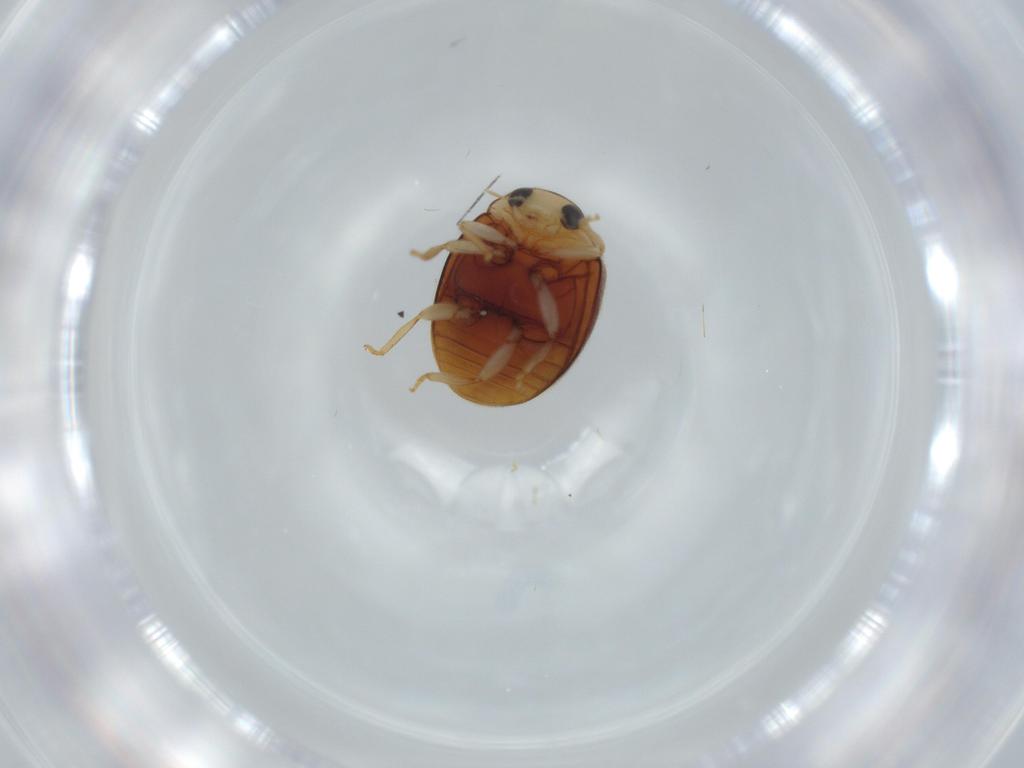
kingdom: Animalia
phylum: Arthropoda
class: Insecta
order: Coleoptera
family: Coccinellidae
